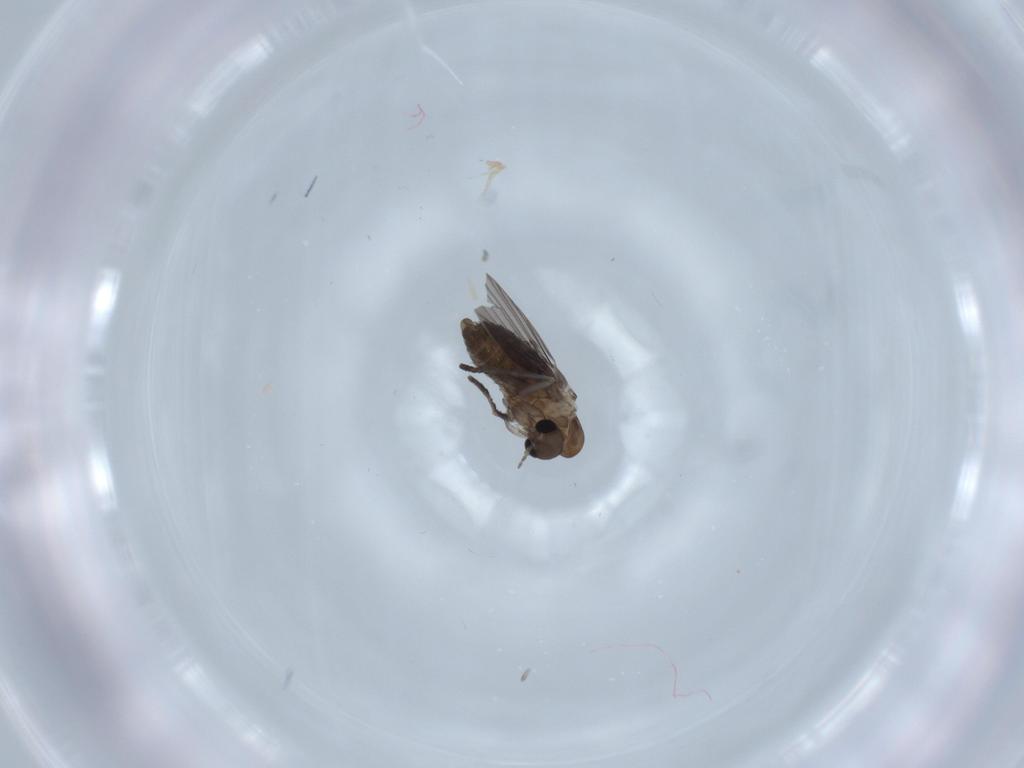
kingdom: Animalia
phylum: Arthropoda
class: Insecta
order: Diptera
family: Psychodidae
